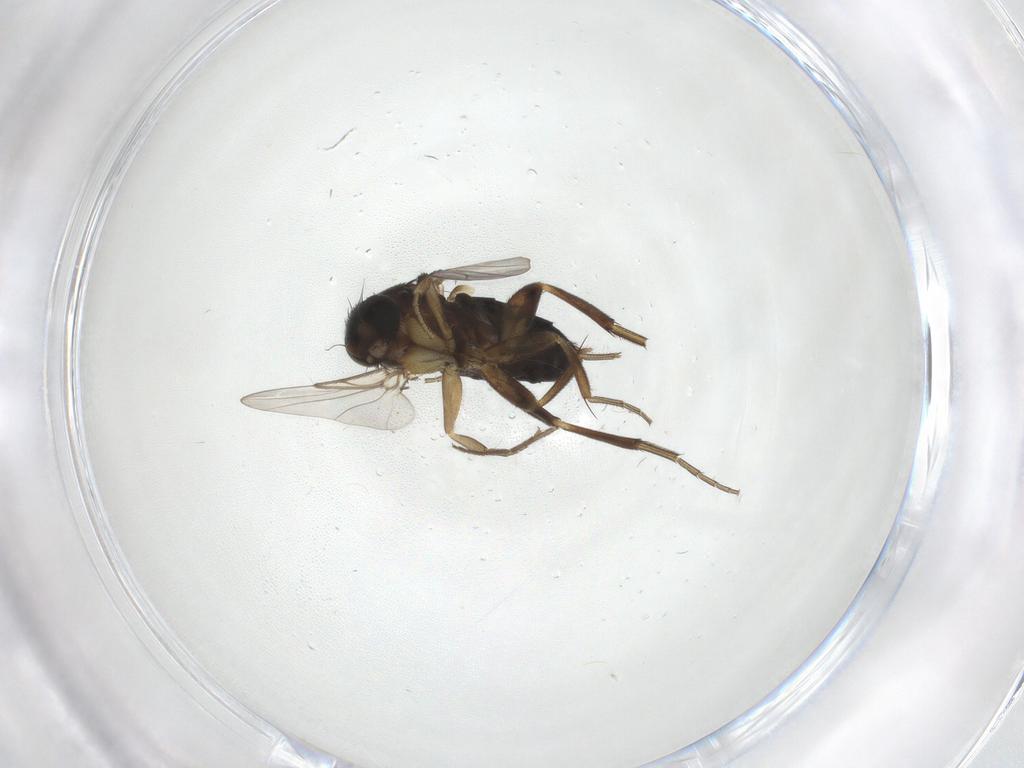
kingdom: Animalia
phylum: Arthropoda
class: Insecta
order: Diptera
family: Phoridae
